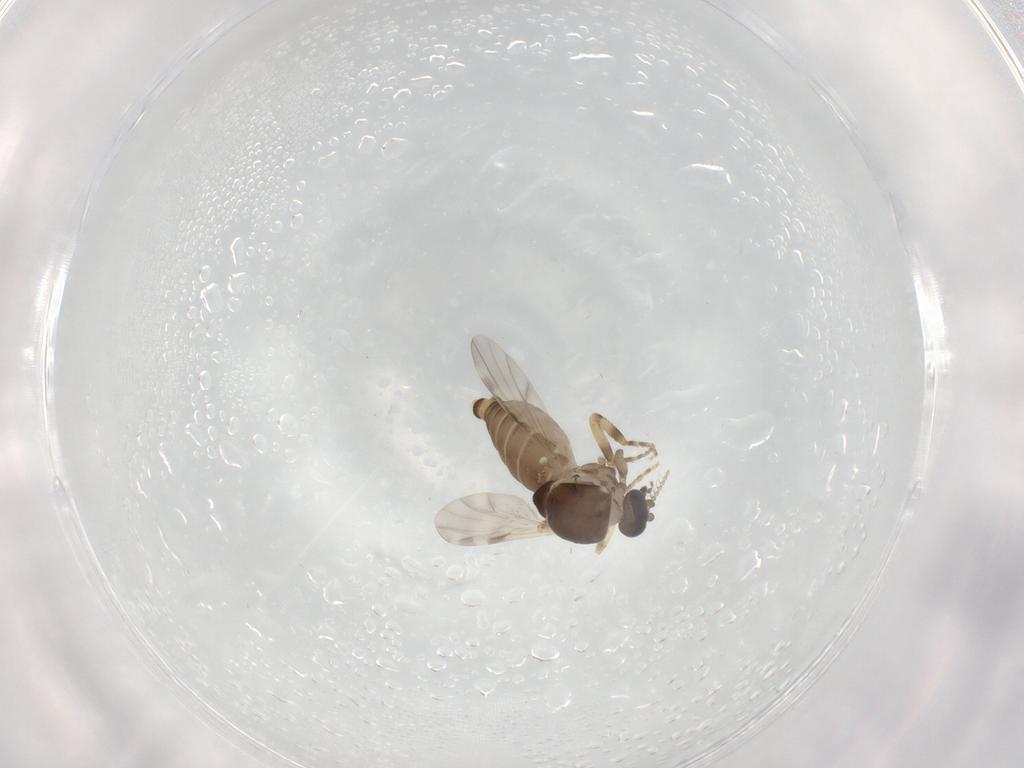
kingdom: Animalia
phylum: Arthropoda
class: Insecta
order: Diptera
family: Ceratopogonidae
